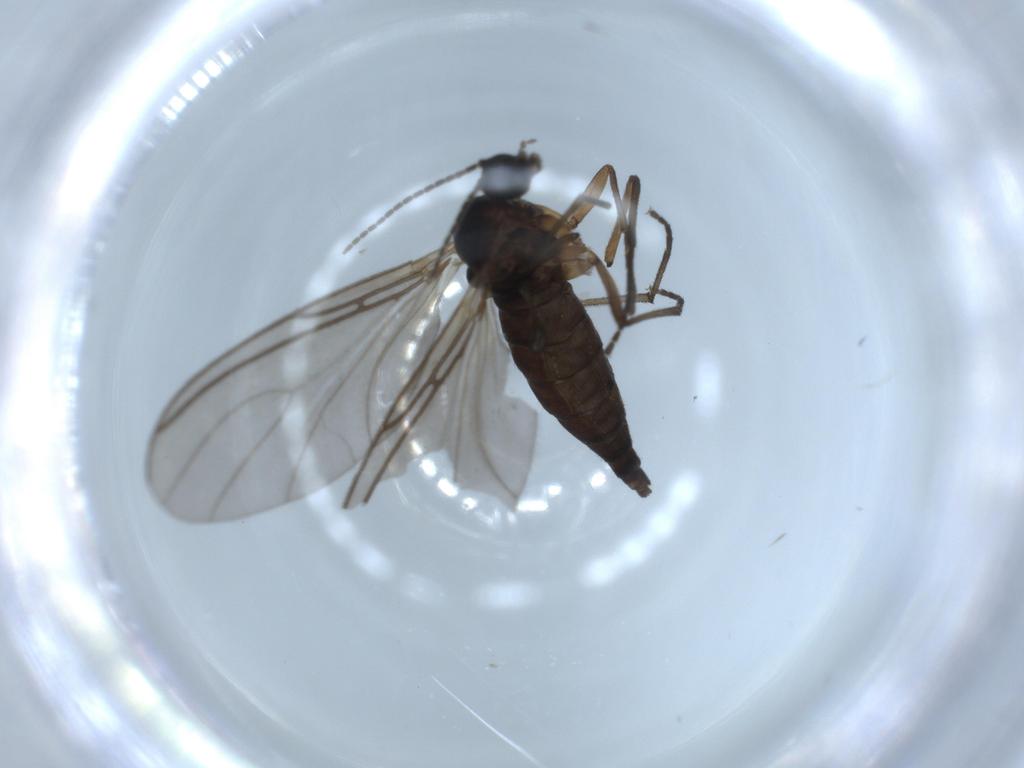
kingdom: Animalia
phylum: Arthropoda
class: Insecta
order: Diptera
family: Sciaridae
